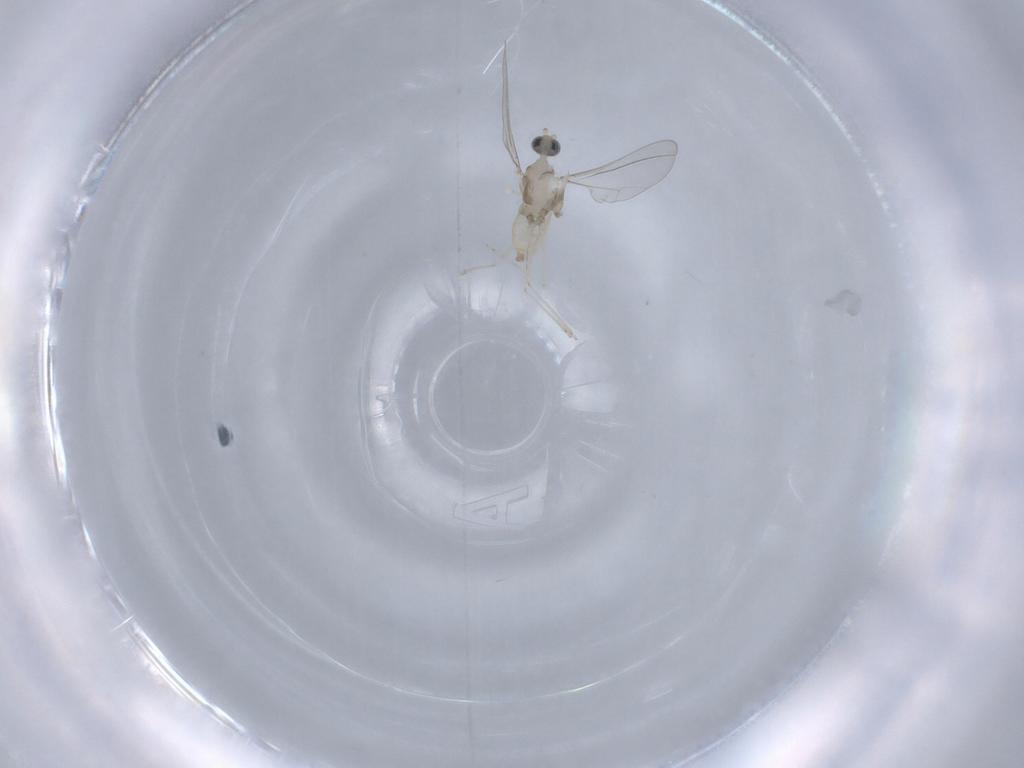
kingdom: Animalia
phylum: Arthropoda
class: Insecta
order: Diptera
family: Cecidomyiidae
